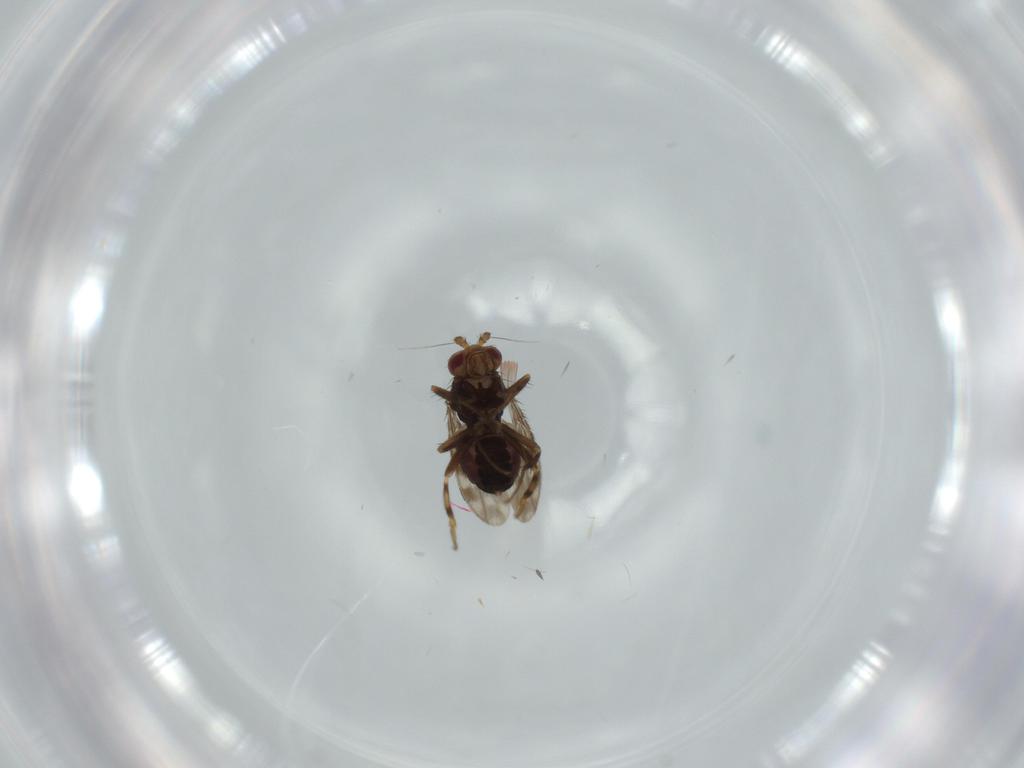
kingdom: Animalia
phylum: Arthropoda
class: Insecta
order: Diptera
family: Sphaeroceridae
